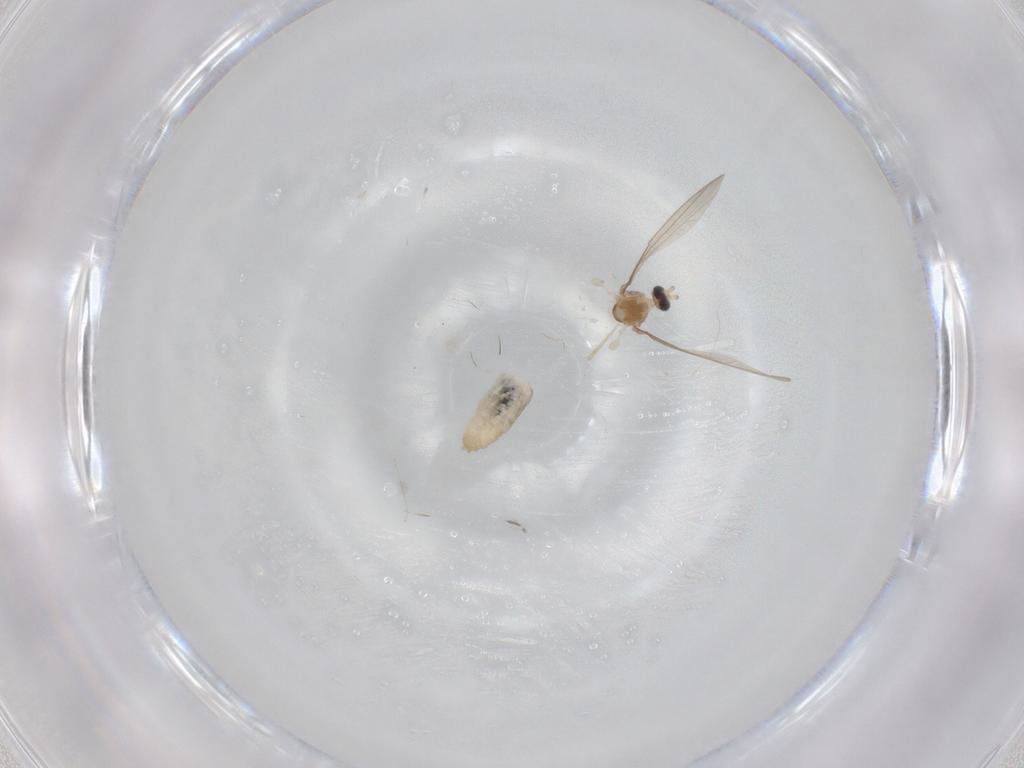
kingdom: Animalia
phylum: Arthropoda
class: Insecta
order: Diptera
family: Cecidomyiidae
